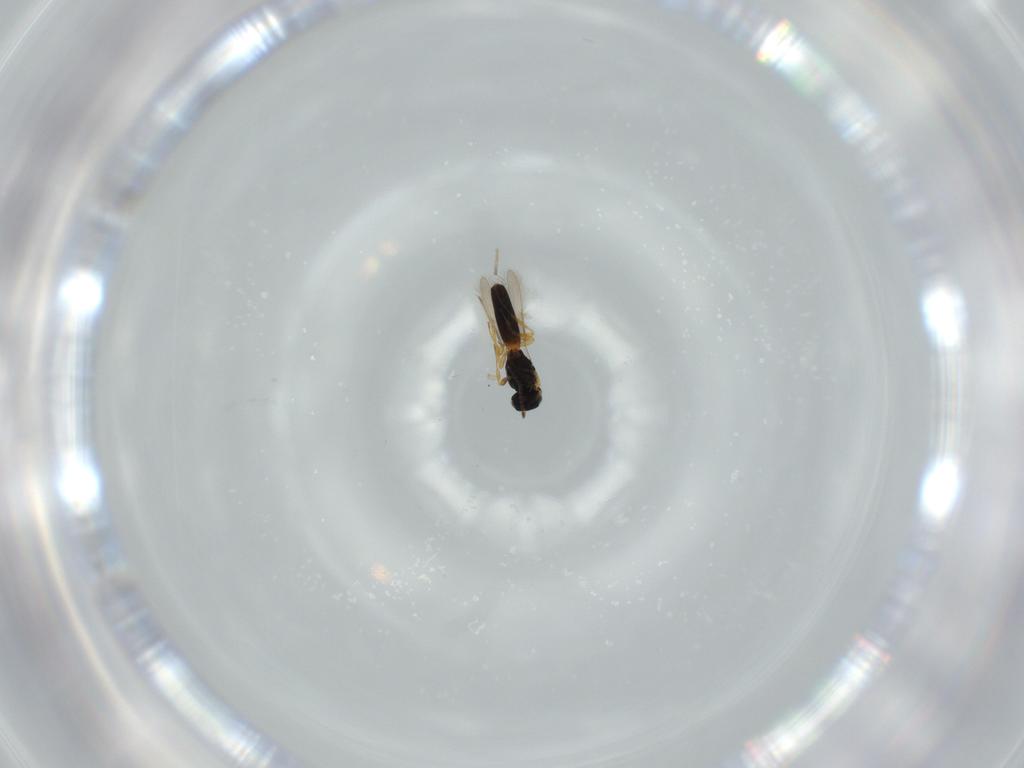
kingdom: Animalia
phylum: Arthropoda
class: Insecta
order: Hymenoptera
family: Scelionidae
